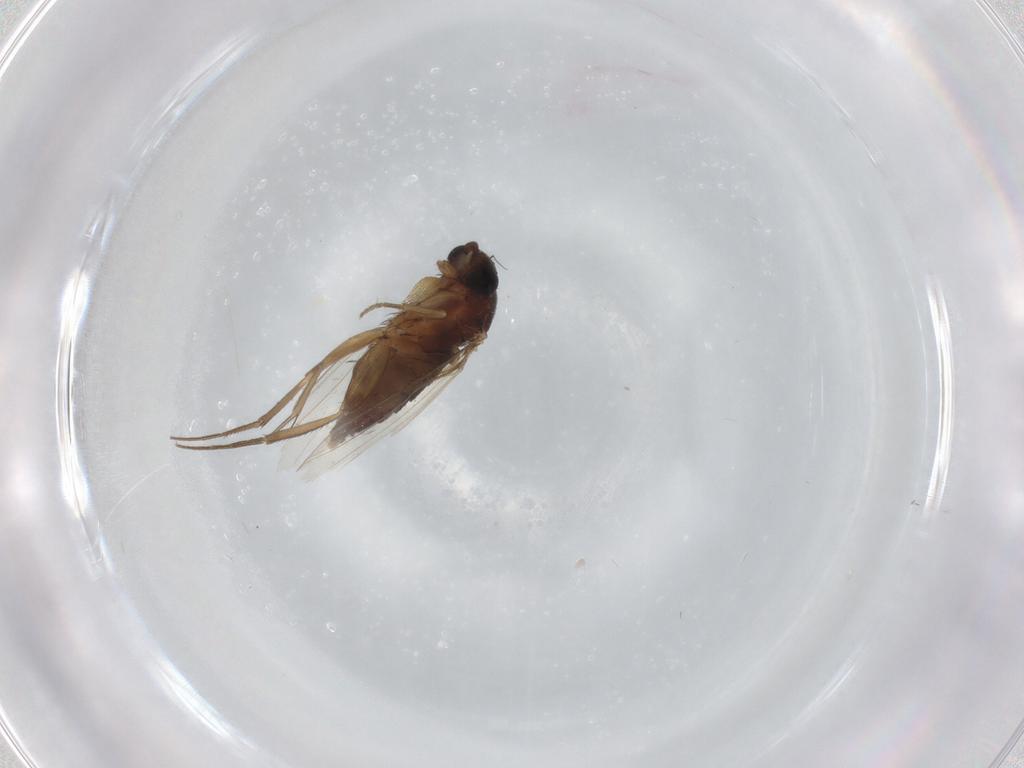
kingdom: Animalia
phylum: Arthropoda
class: Insecta
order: Diptera
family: Phoridae
